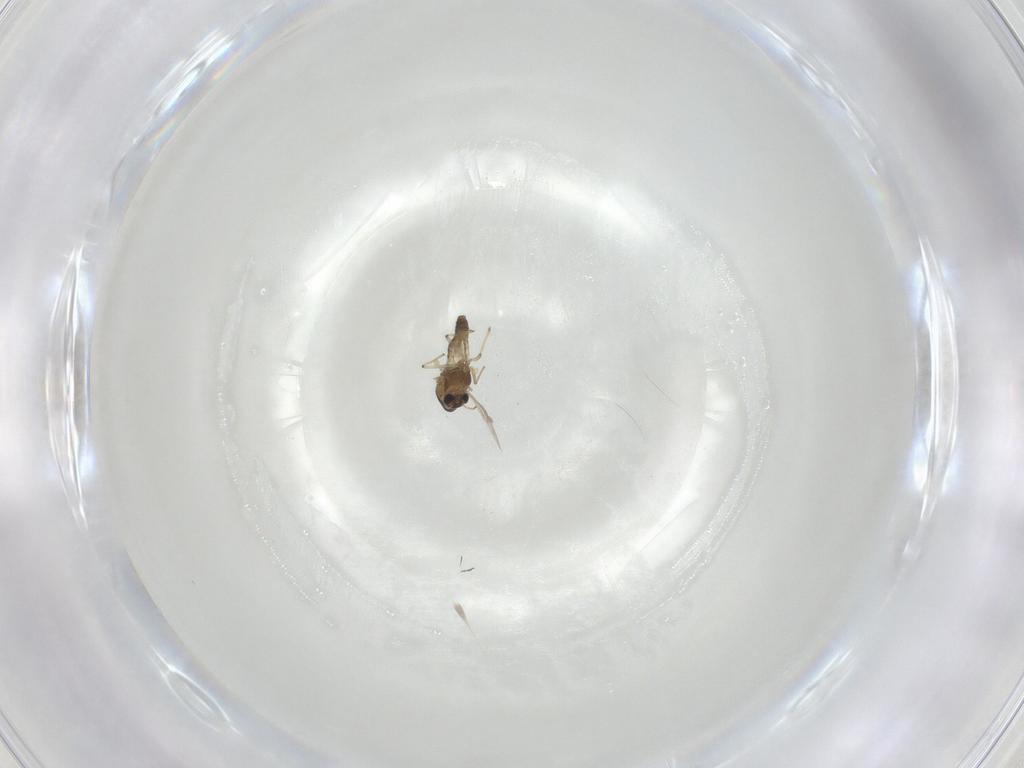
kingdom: Animalia
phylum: Arthropoda
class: Insecta
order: Diptera
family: Chironomidae
